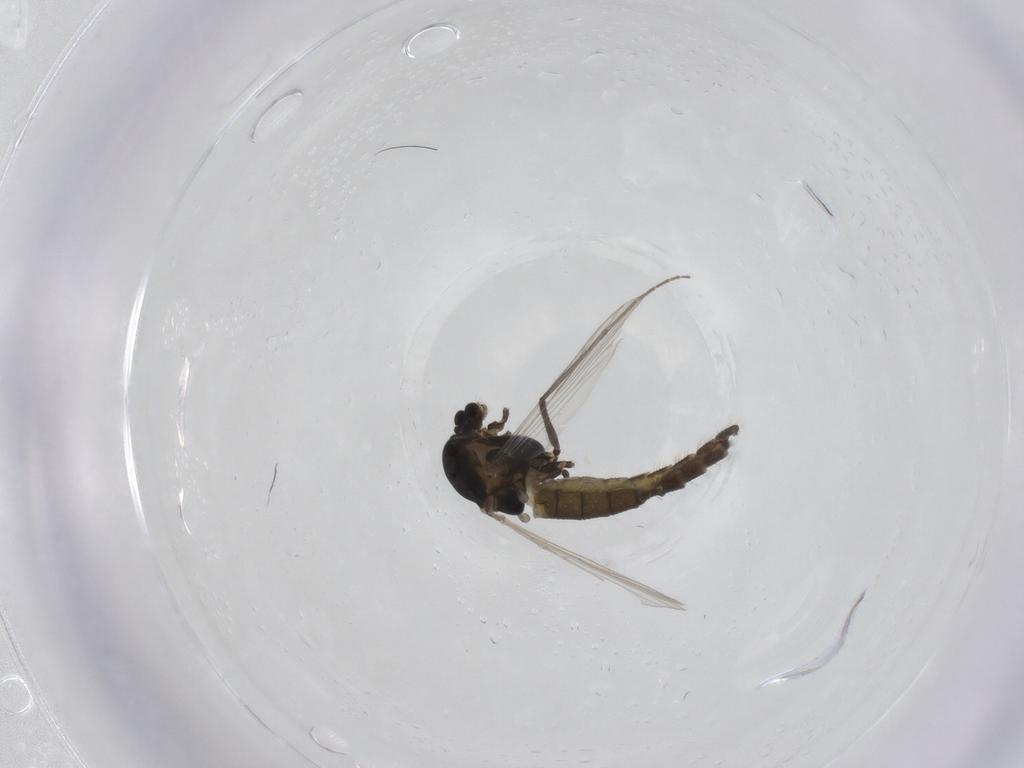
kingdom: Animalia
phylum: Arthropoda
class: Insecta
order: Diptera
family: Chironomidae
